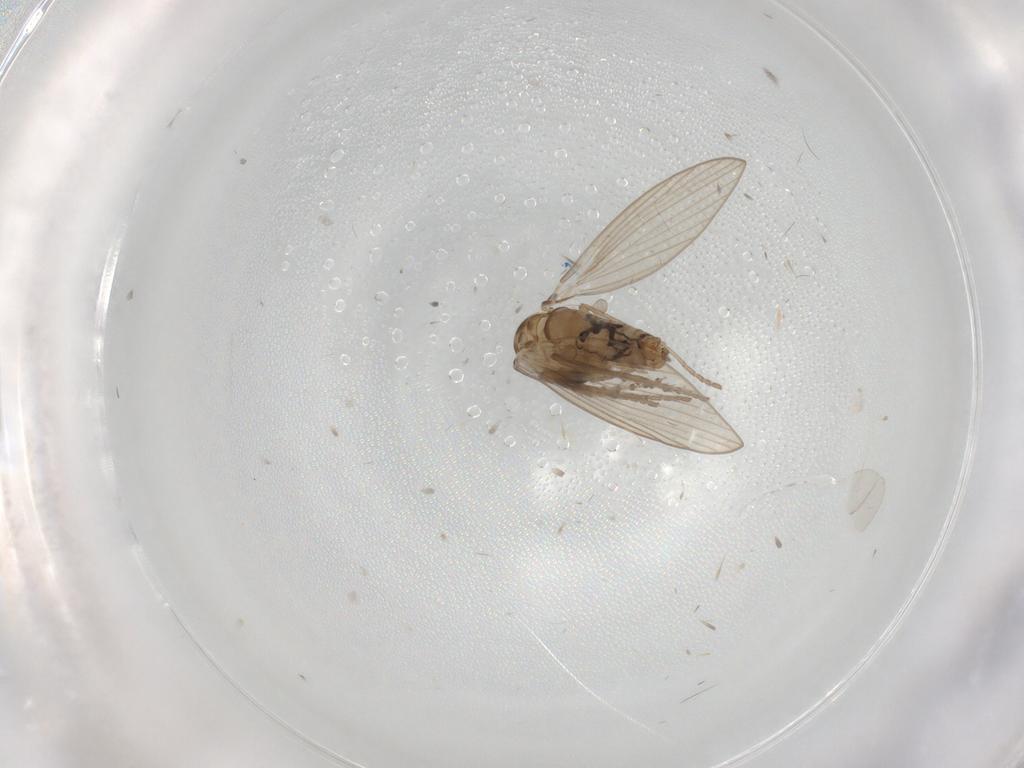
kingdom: Animalia
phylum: Arthropoda
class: Insecta
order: Diptera
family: Psychodidae
